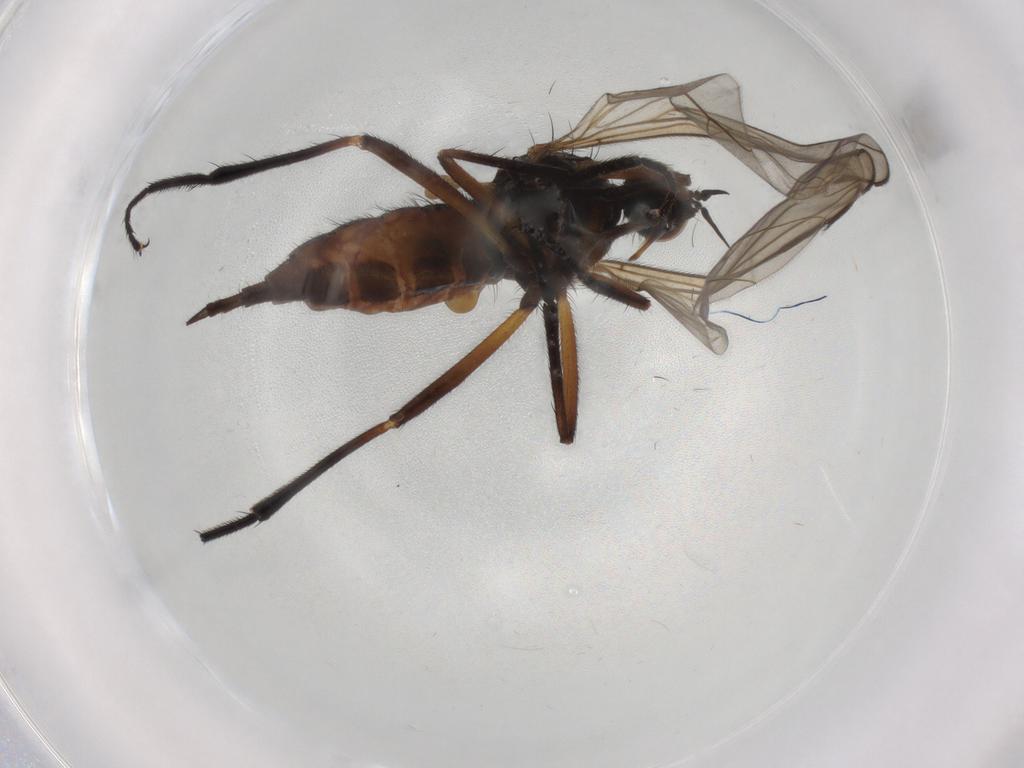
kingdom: Animalia
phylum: Arthropoda
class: Insecta
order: Diptera
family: Empididae
